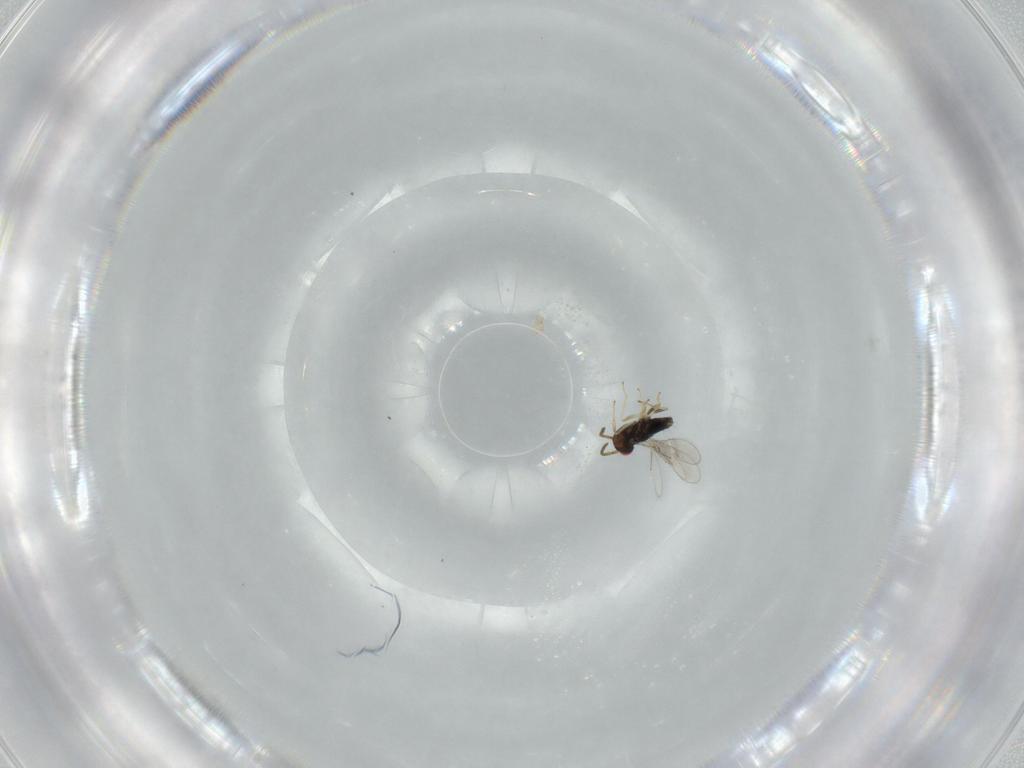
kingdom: Animalia
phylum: Arthropoda
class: Insecta
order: Hymenoptera
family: Azotidae
